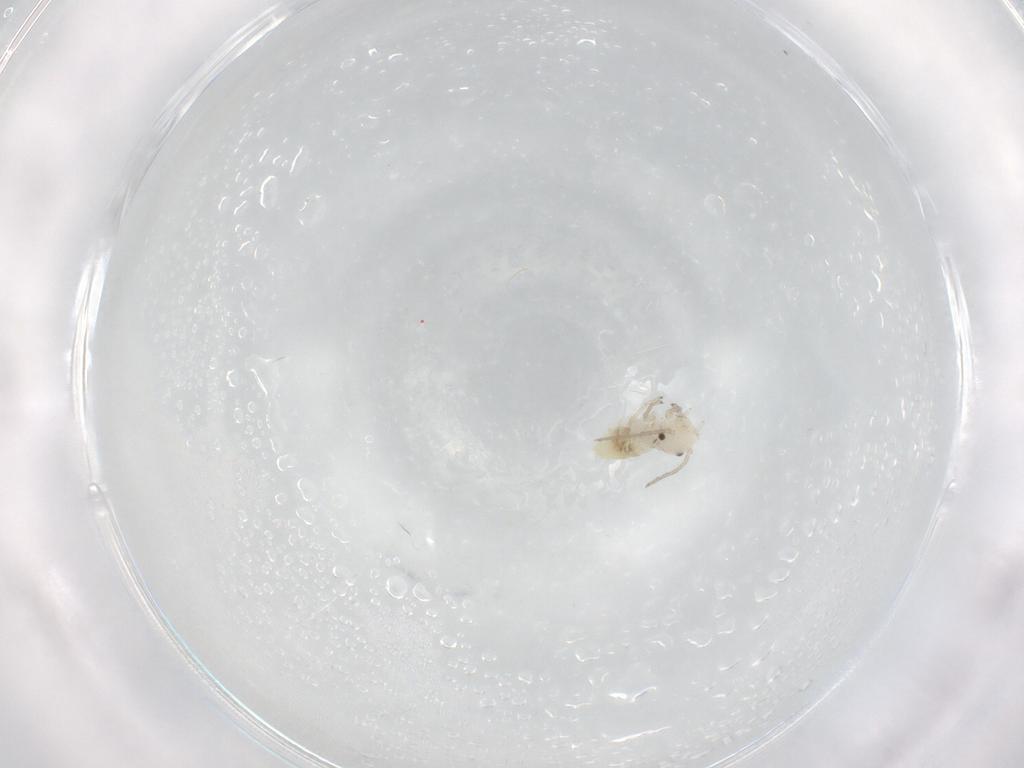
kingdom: Animalia
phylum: Arthropoda
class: Insecta
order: Psocodea
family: Caeciliusidae
